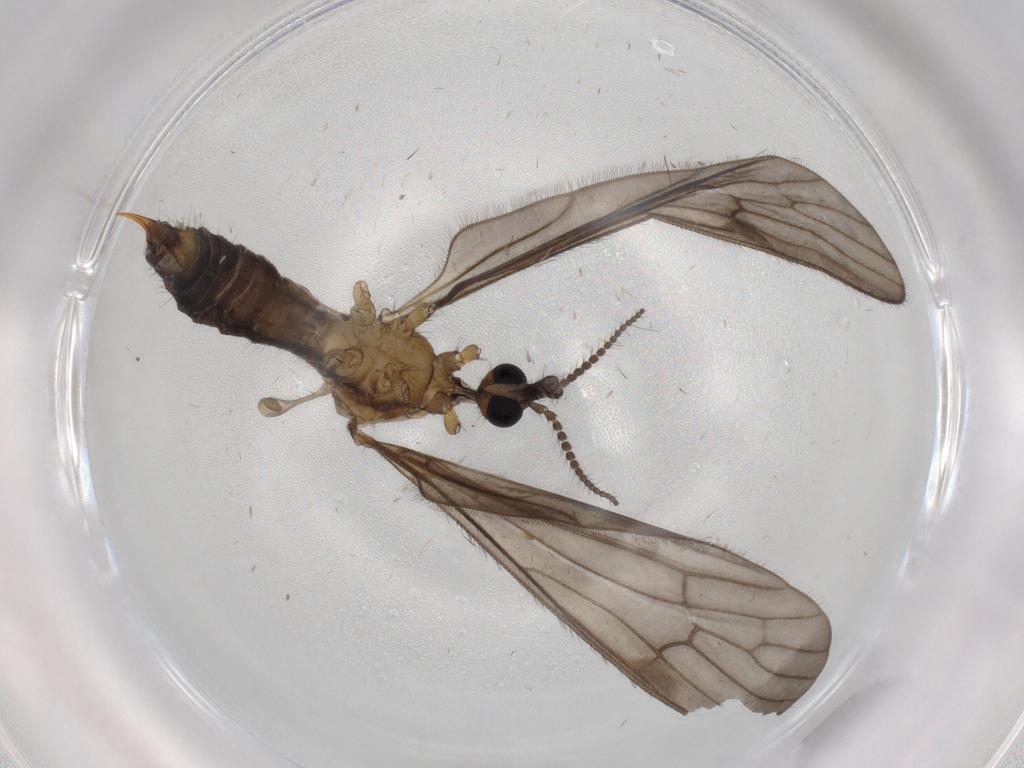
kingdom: Animalia
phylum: Arthropoda
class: Insecta
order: Diptera
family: Limoniidae
